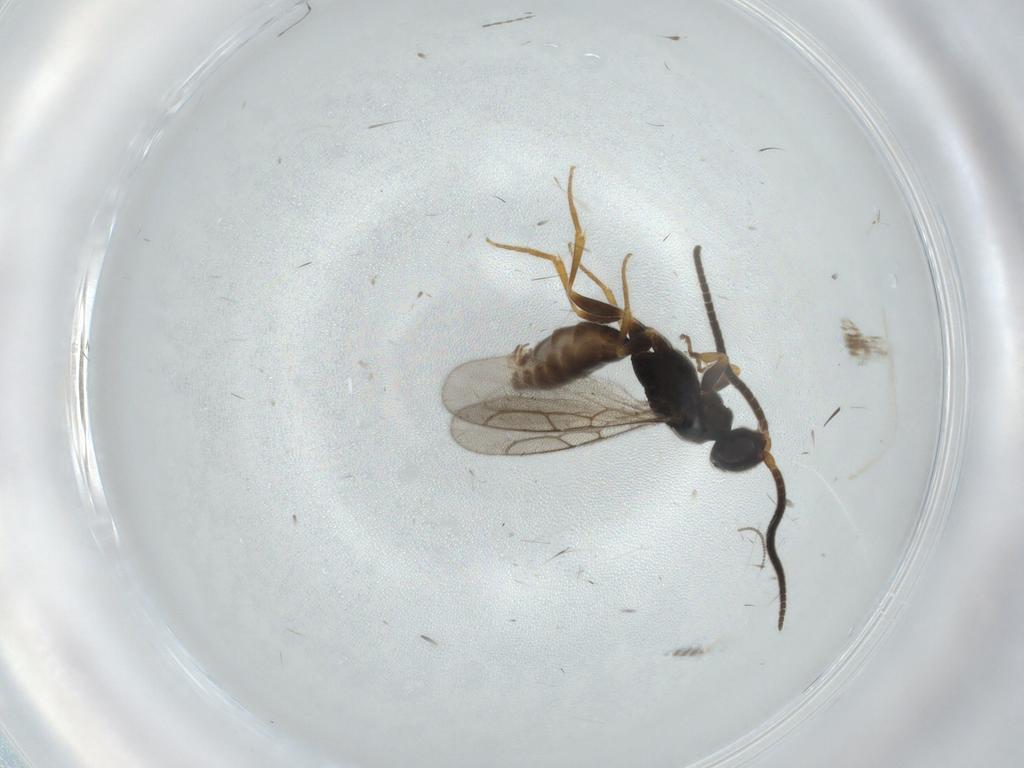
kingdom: Animalia
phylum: Arthropoda
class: Insecta
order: Hymenoptera
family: Sclerogibbidae
